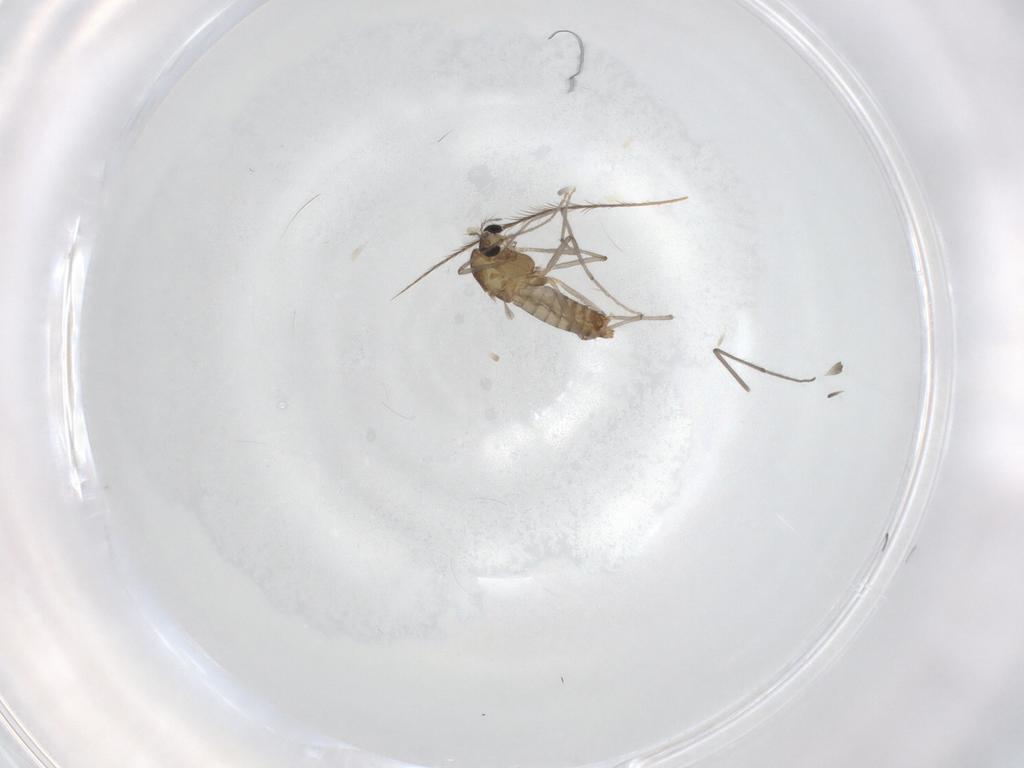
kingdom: Animalia
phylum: Arthropoda
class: Insecta
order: Diptera
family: Chironomidae
